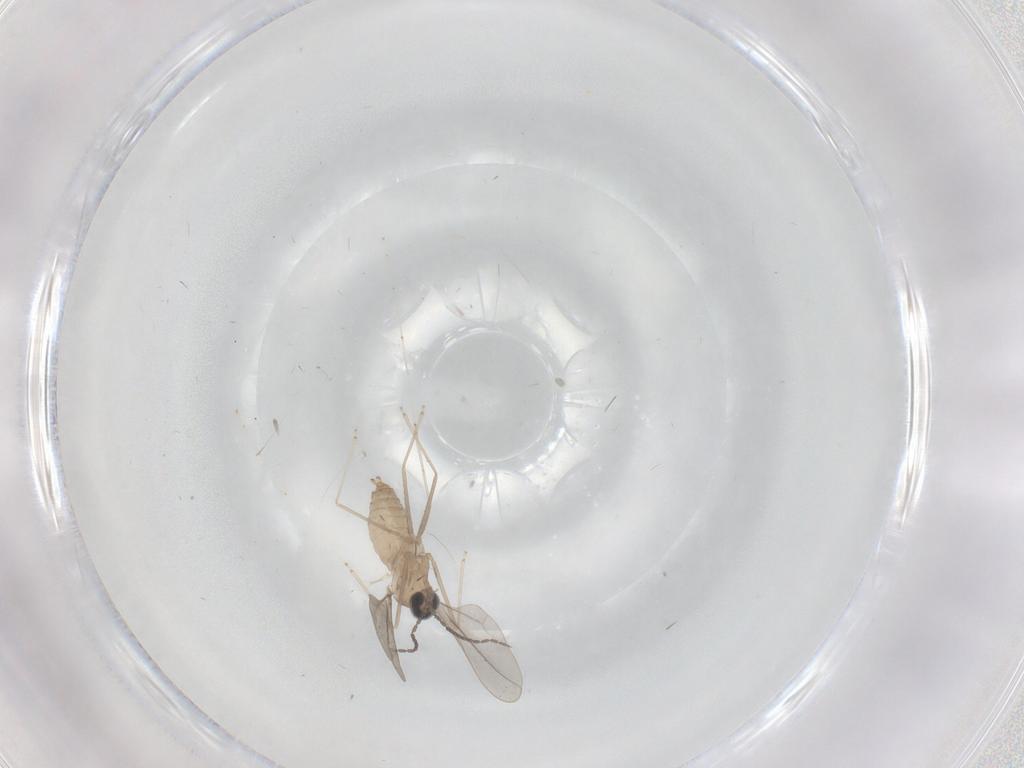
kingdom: Animalia
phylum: Arthropoda
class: Insecta
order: Diptera
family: Cecidomyiidae
